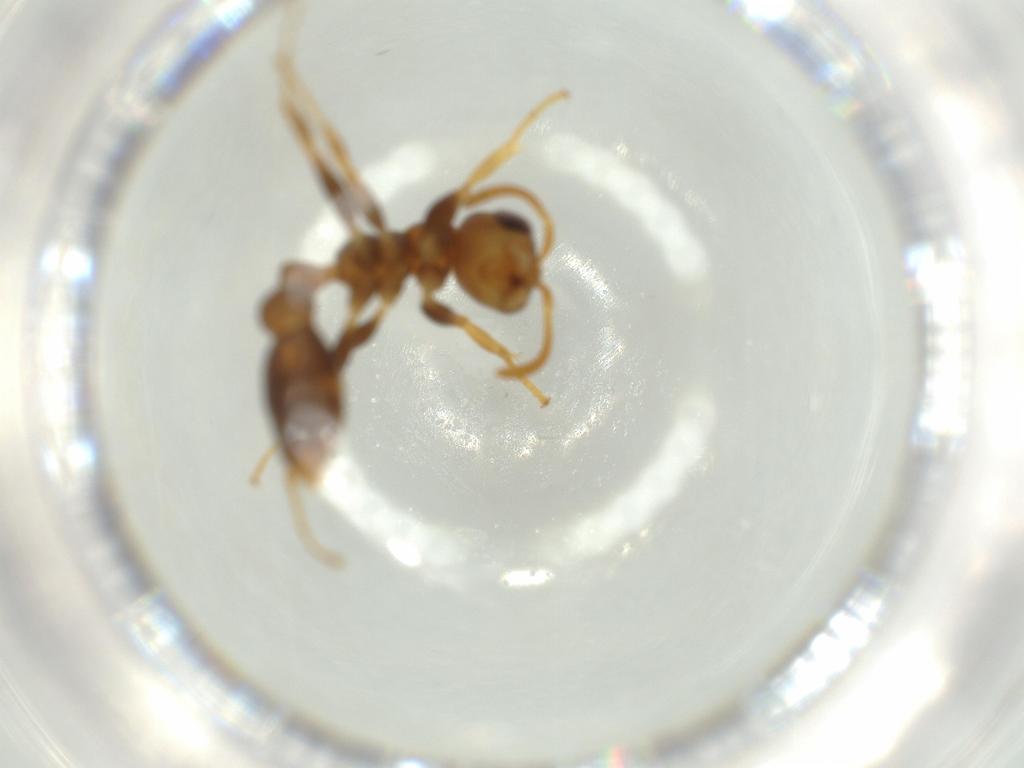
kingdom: Animalia
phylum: Arthropoda
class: Insecta
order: Hymenoptera
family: Formicidae
